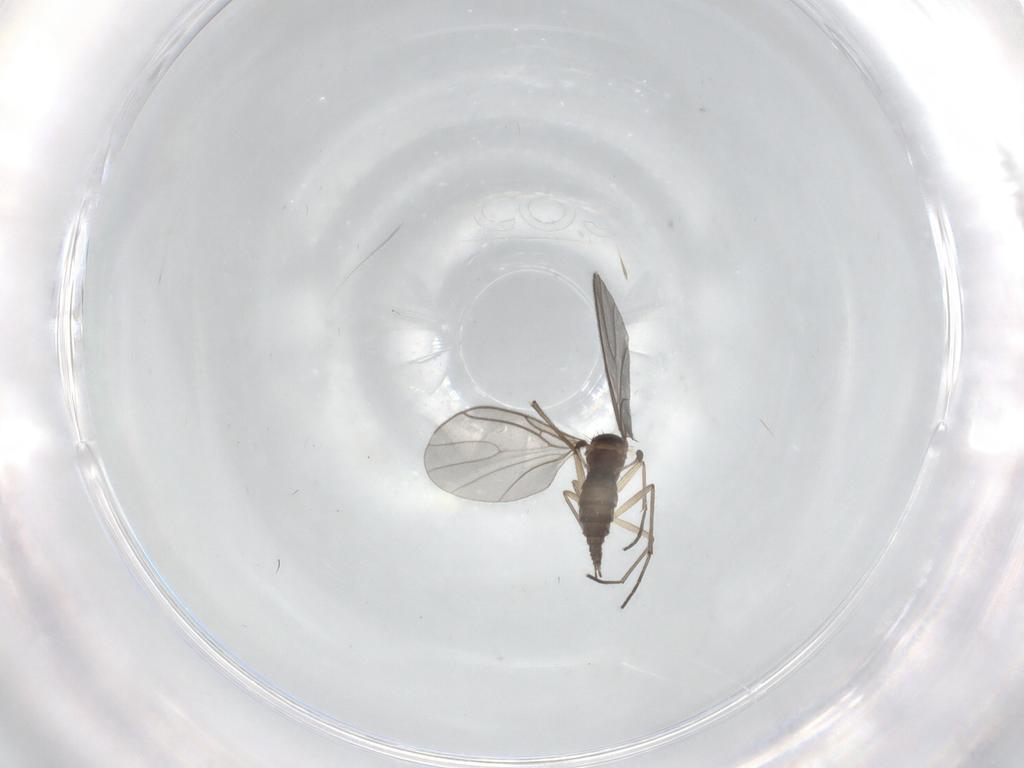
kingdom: Animalia
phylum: Arthropoda
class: Insecta
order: Diptera
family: Sciaridae
